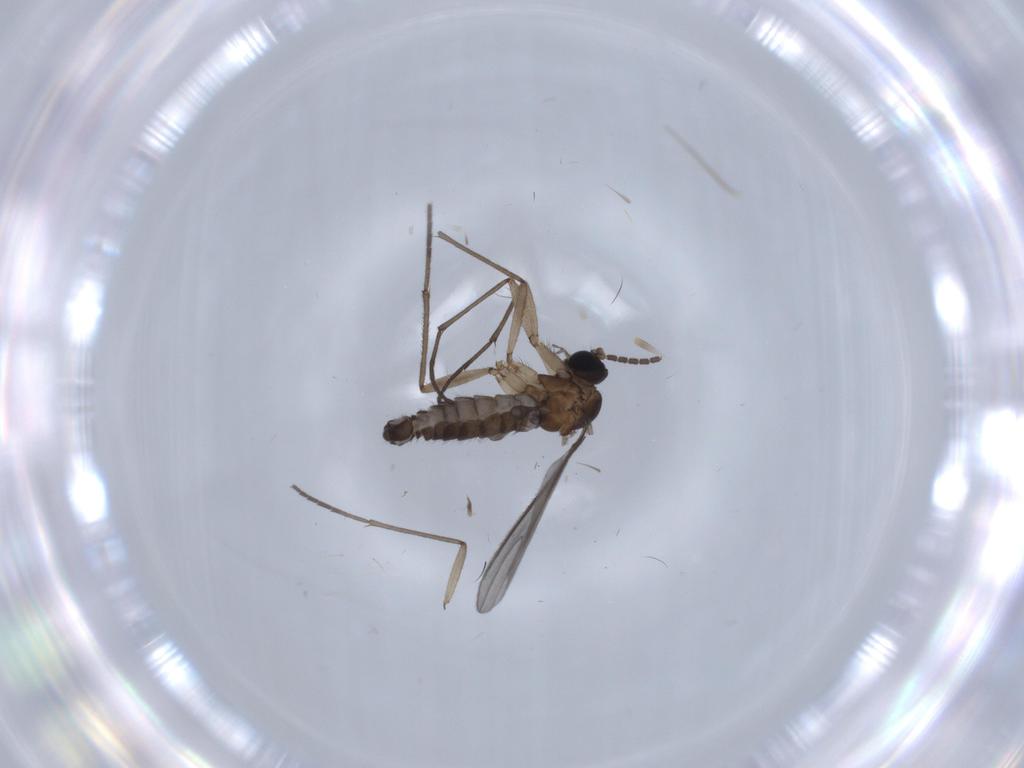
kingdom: Animalia
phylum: Arthropoda
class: Insecta
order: Diptera
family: Sciaridae
